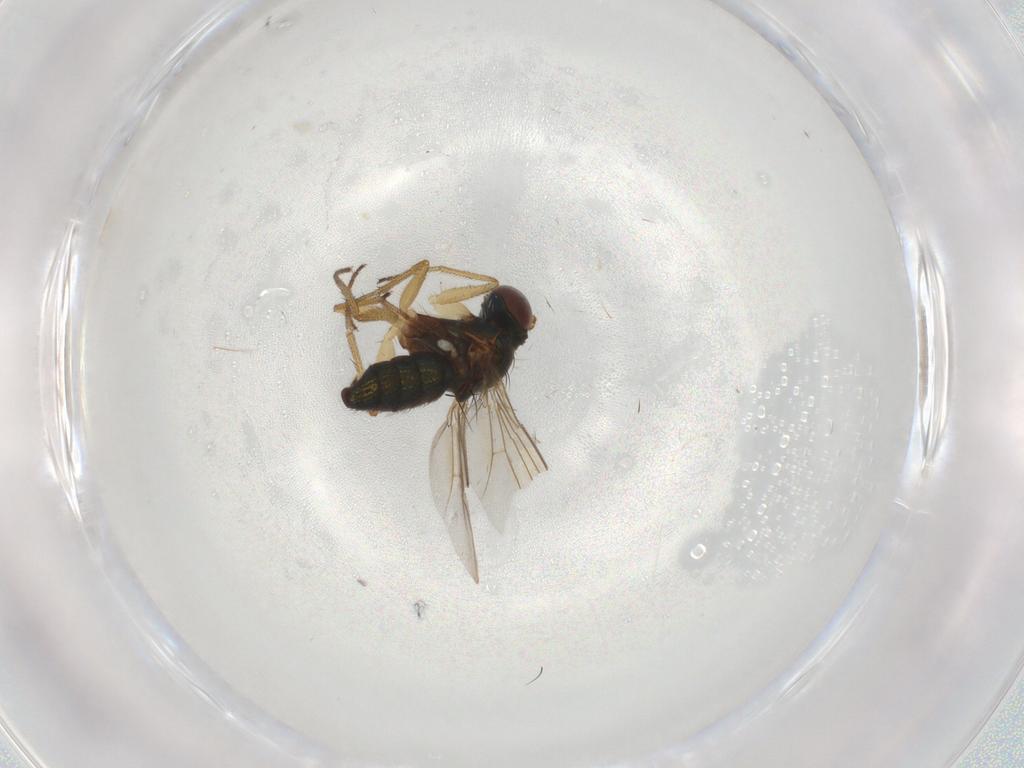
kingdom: Animalia
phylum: Arthropoda
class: Insecta
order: Diptera
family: Dolichopodidae
